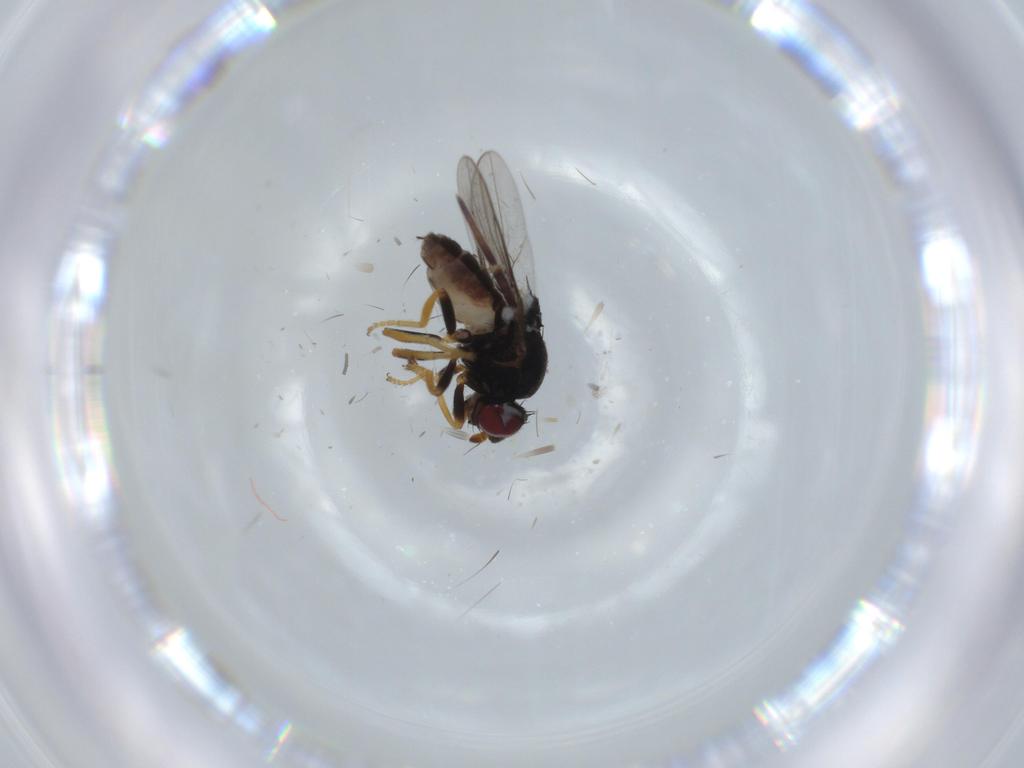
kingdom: Animalia
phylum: Arthropoda
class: Insecta
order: Diptera
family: Chloropidae
